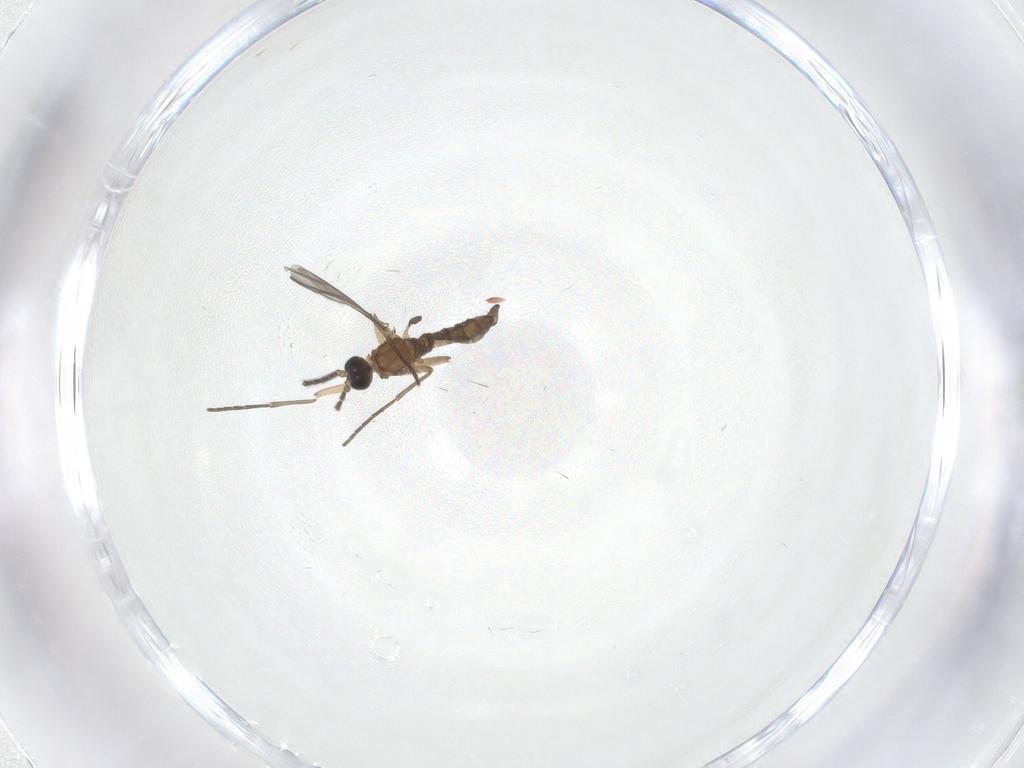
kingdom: Animalia
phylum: Arthropoda
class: Insecta
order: Diptera
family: Sciaridae
